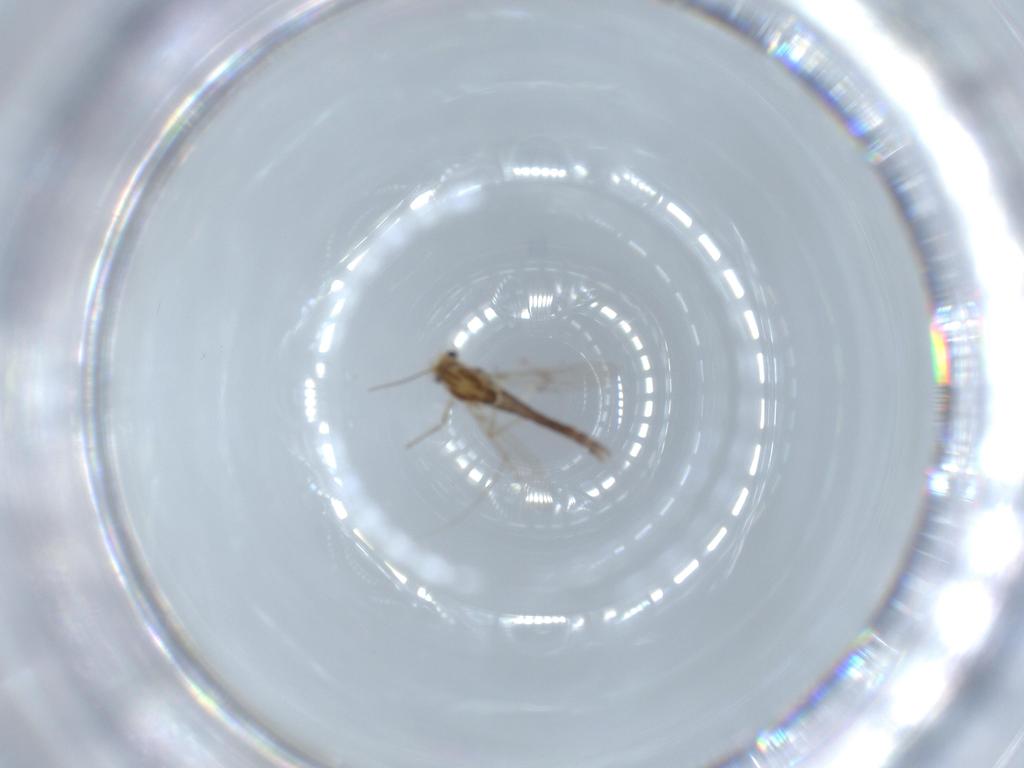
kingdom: Animalia
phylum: Arthropoda
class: Insecta
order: Diptera
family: Chironomidae
